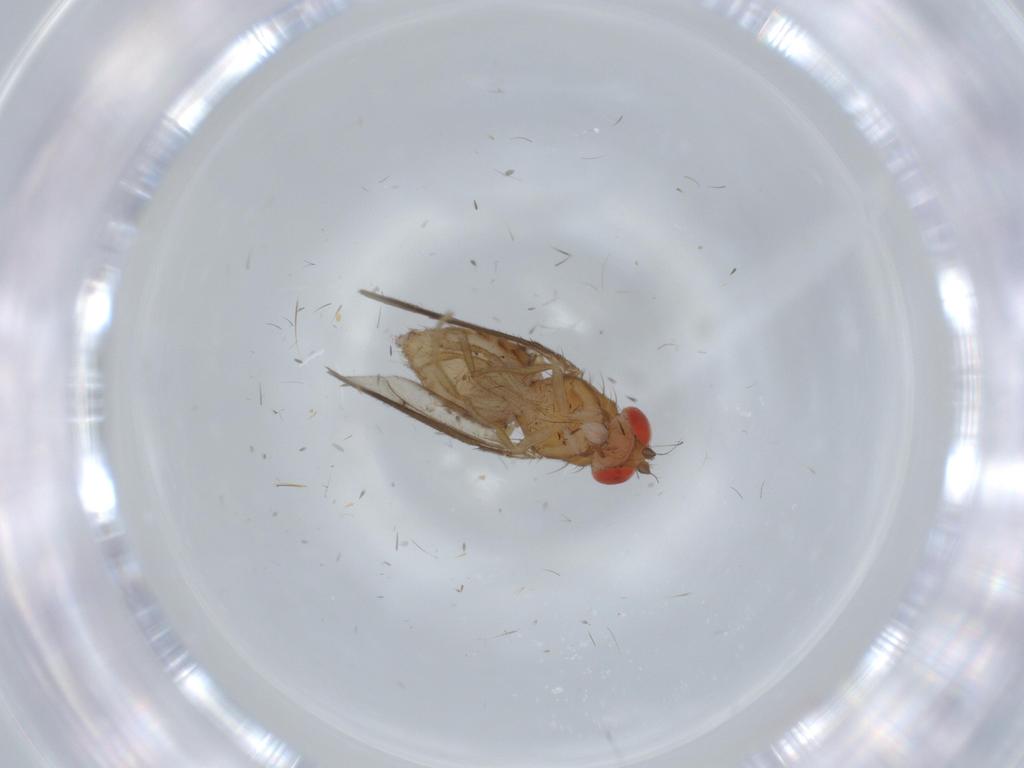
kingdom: Animalia
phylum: Arthropoda
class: Insecta
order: Diptera
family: Drosophilidae
